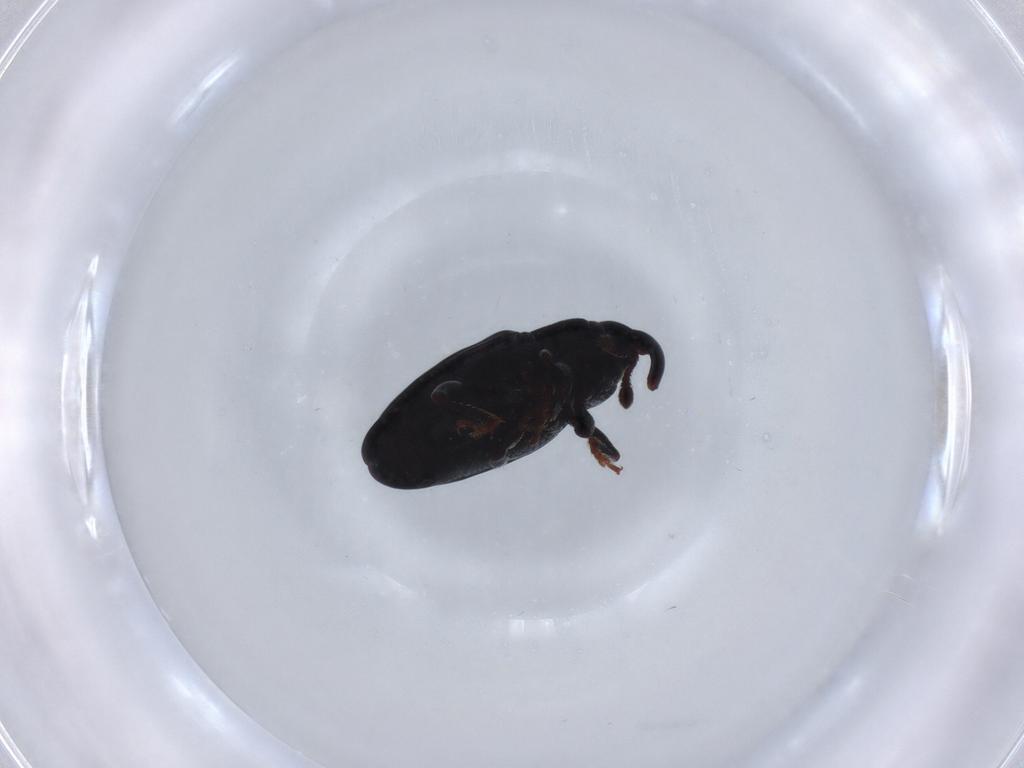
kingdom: Animalia
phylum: Arthropoda
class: Insecta
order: Coleoptera
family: Curculionidae
